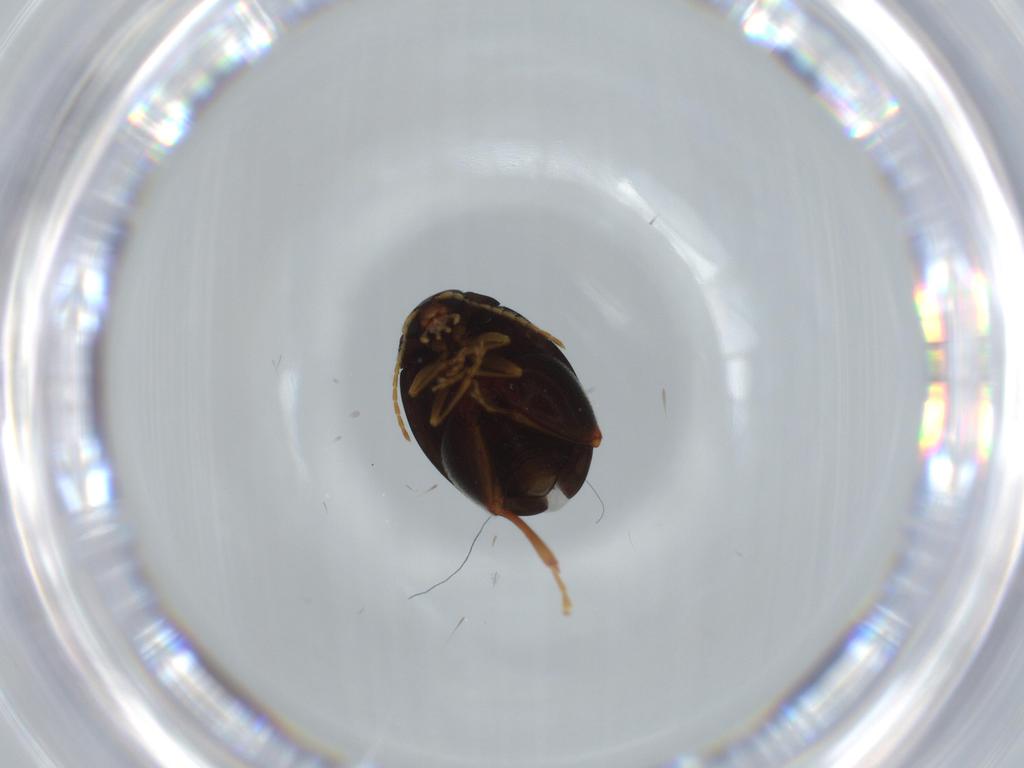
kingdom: Animalia
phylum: Arthropoda
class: Insecta
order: Coleoptera
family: Chrysomelidae
